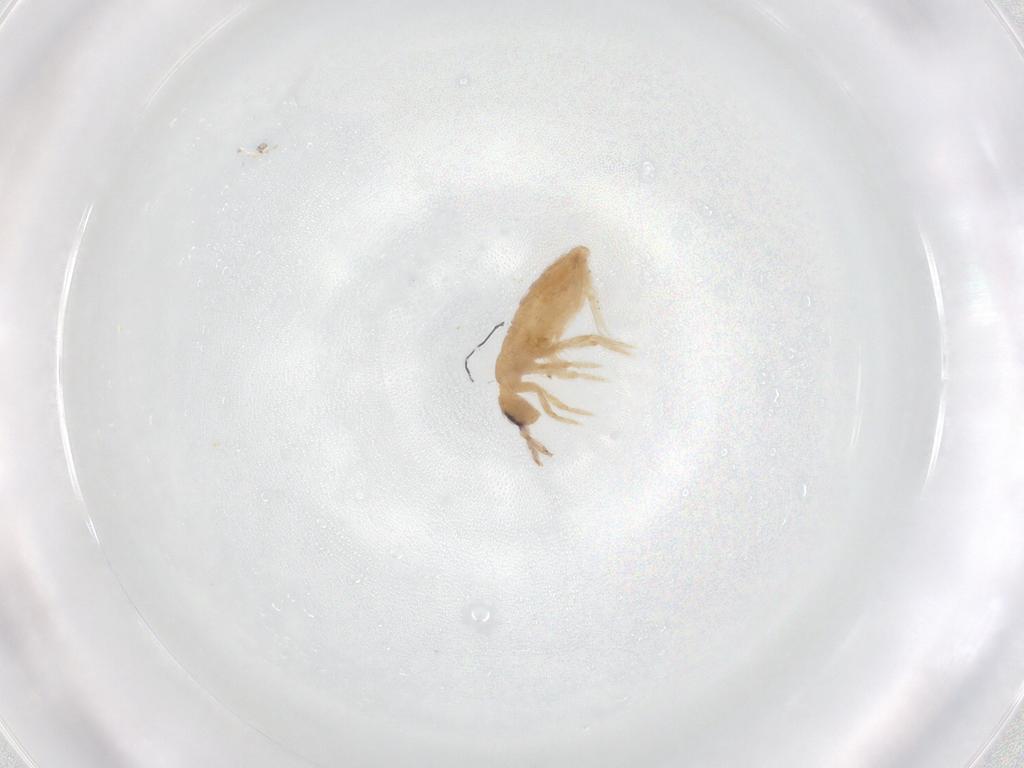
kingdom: Animalia
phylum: Arthropoda
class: Collembola
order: Entomobryomorpha
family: Entomobryidae
